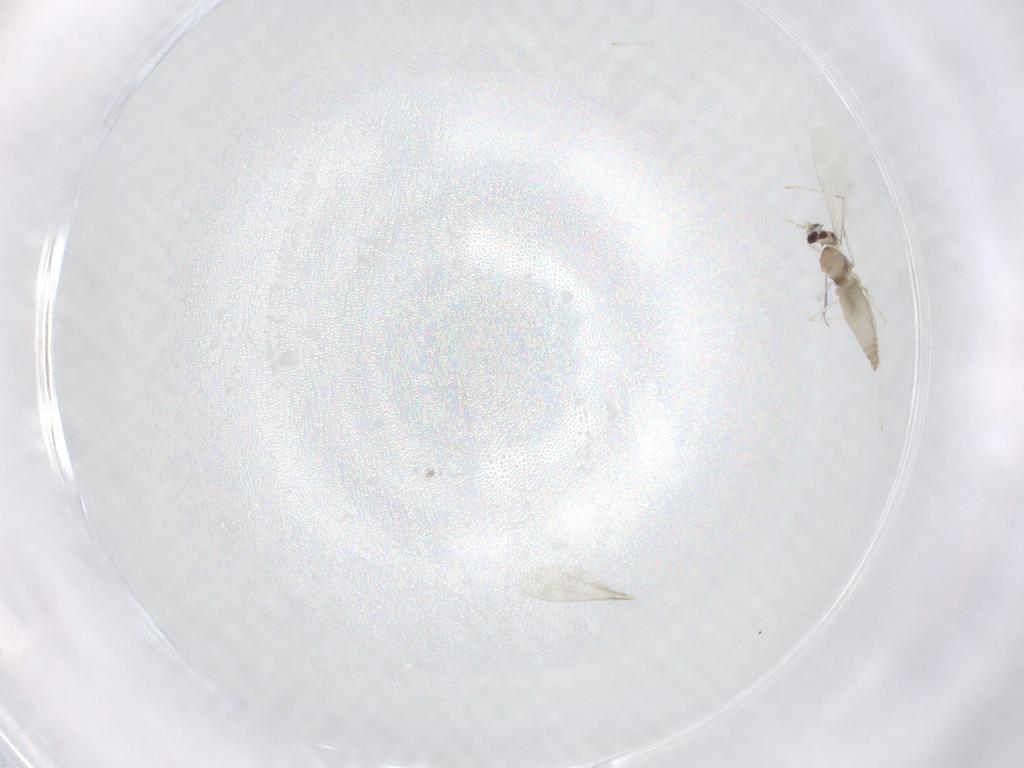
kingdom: Animalia
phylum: Arthropoda
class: Insecta
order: Diptera
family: Cecidomyiidae
